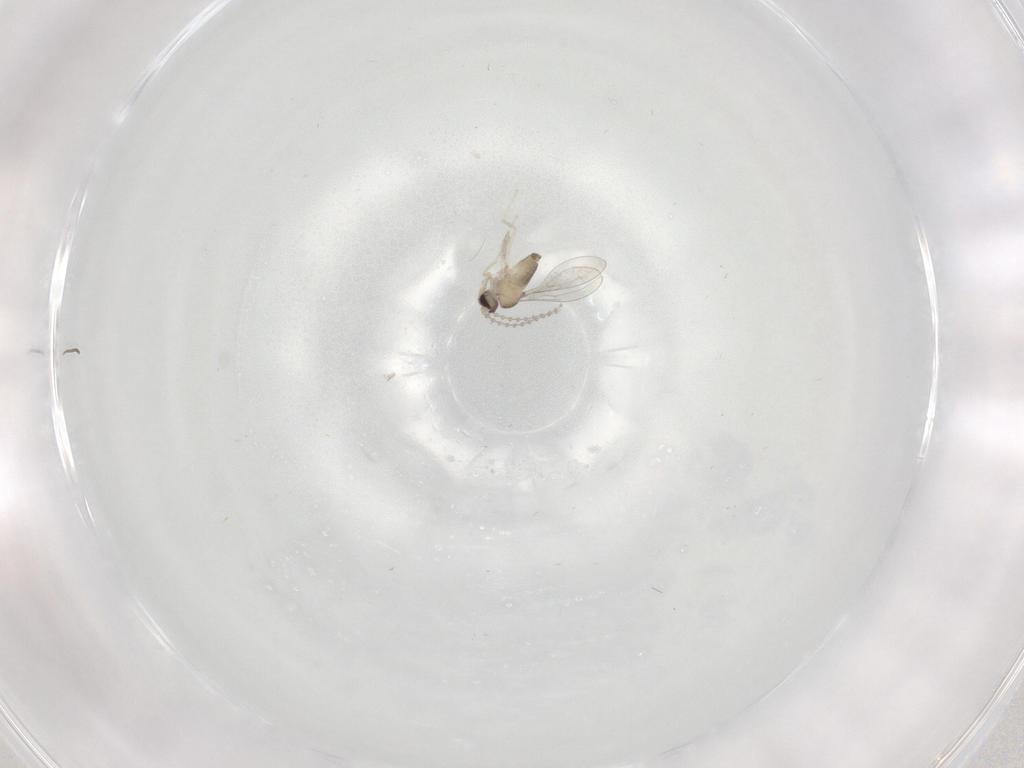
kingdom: Animalia
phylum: Arthropoda
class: Insecta
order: Diptera
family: Cecidomyiidae
